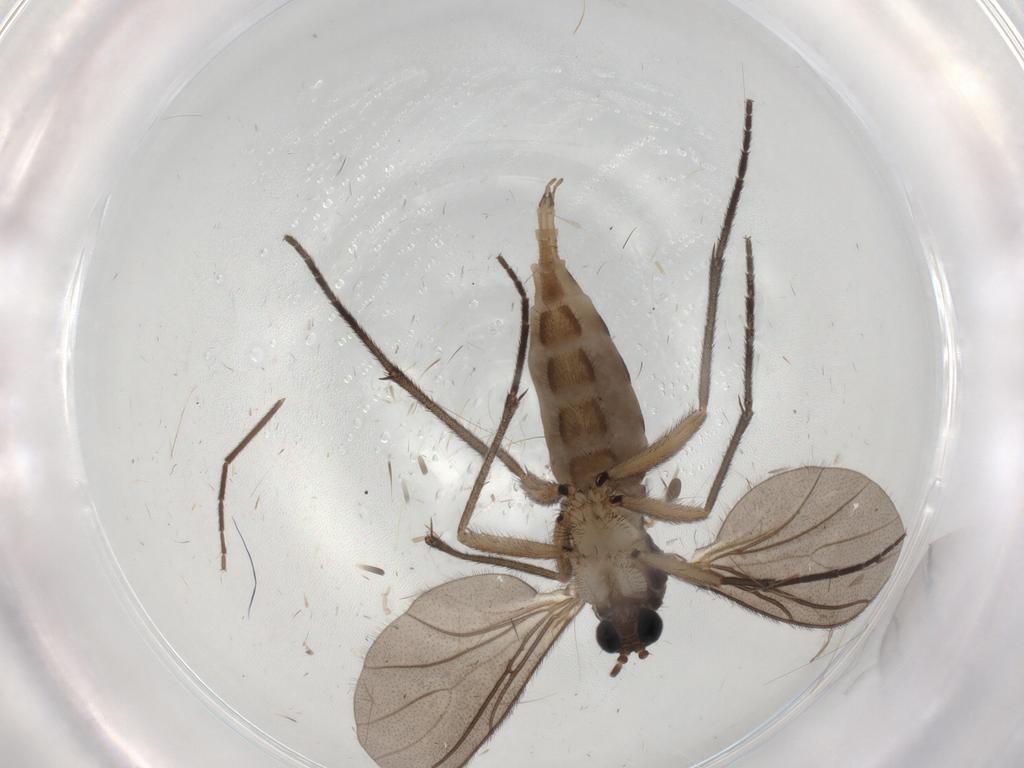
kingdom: Animalia
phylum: Arthropoda
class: Insecta
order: Diptera
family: Sciaridae
